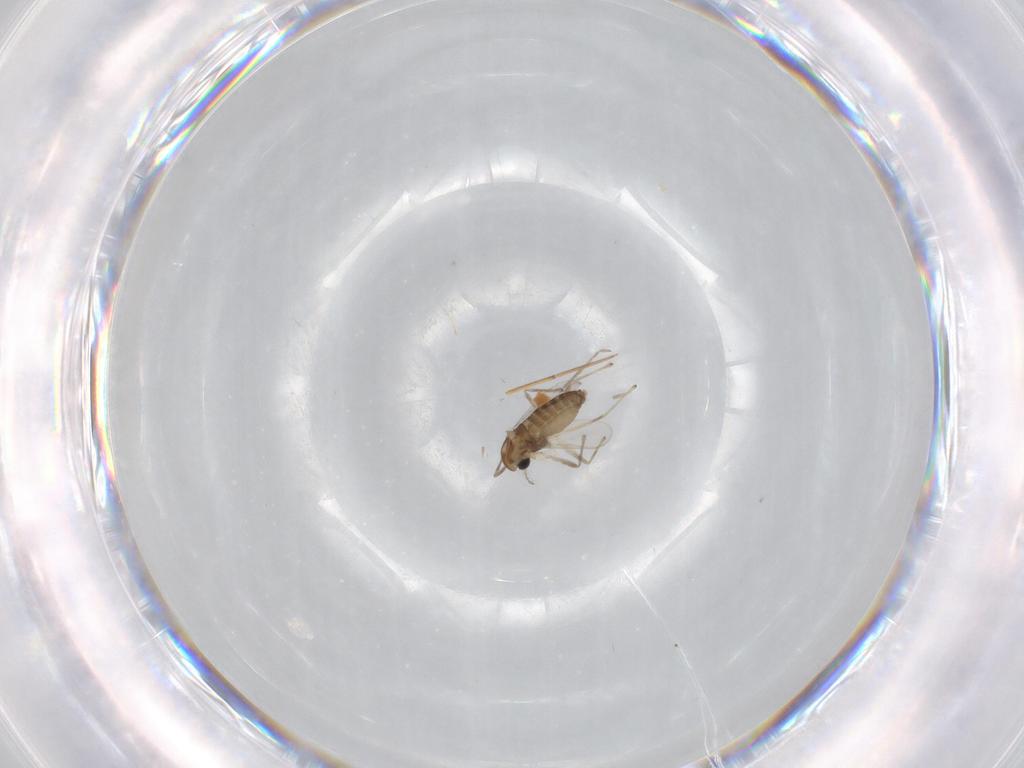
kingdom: Animalia
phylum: Arthropoda
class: Insecta
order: Diptera
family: Chironomidae
